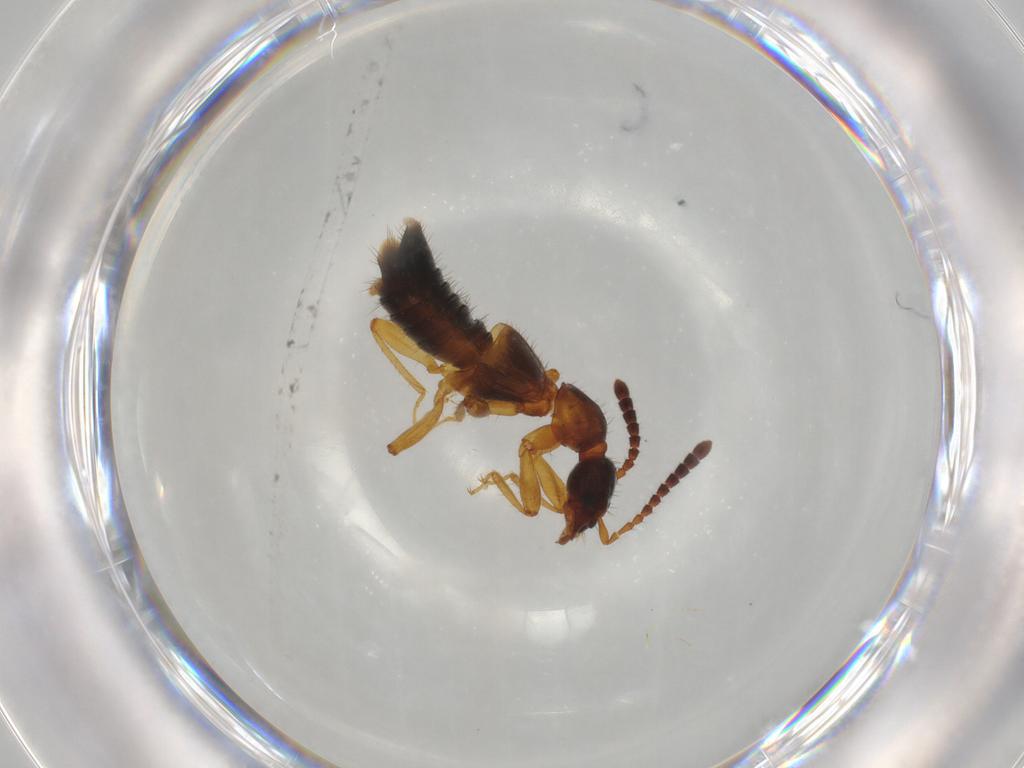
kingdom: Animalia
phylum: Arthropoda
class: Insecta
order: Coleoptera
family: Staphylinidae
